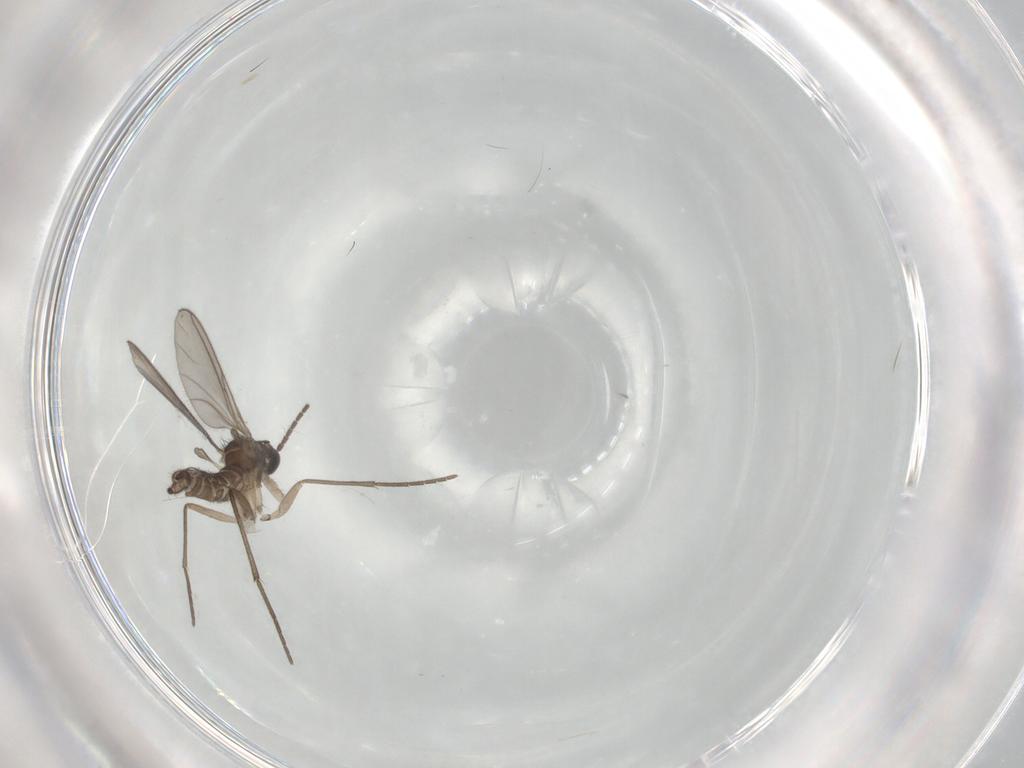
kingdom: Animalia
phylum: Arthropoda
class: Insecta
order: Diptera
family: Sciaridae
